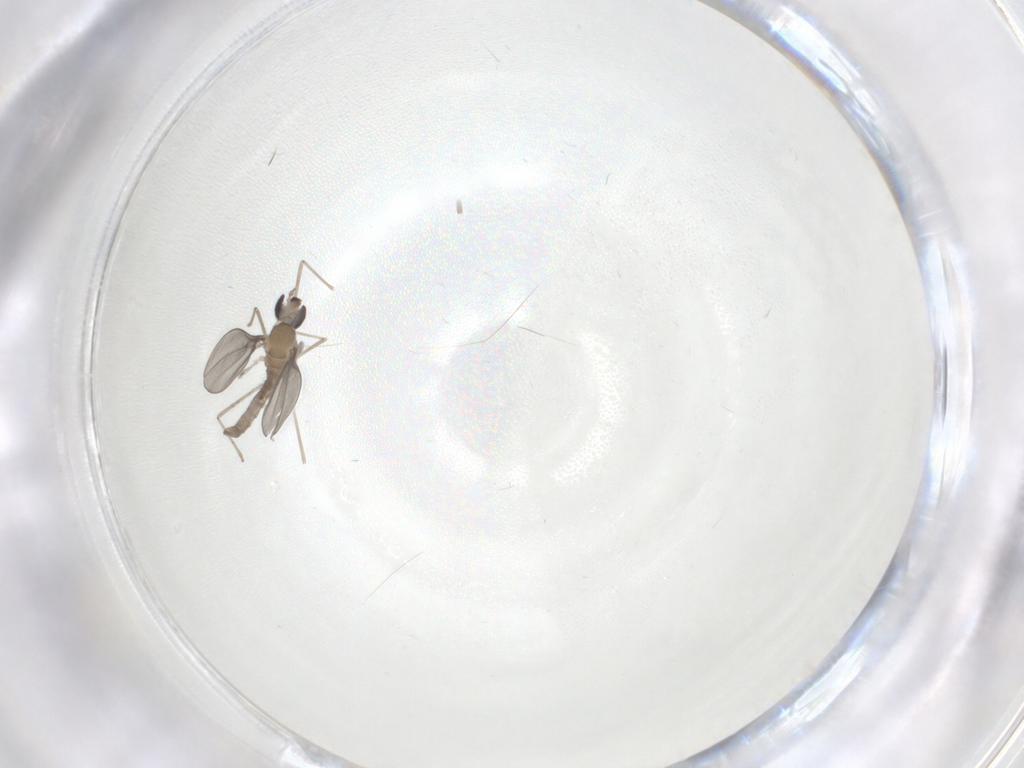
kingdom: Animalia
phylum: Arthropoda
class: Insecta
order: Diptera
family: Ceratopogonidae
